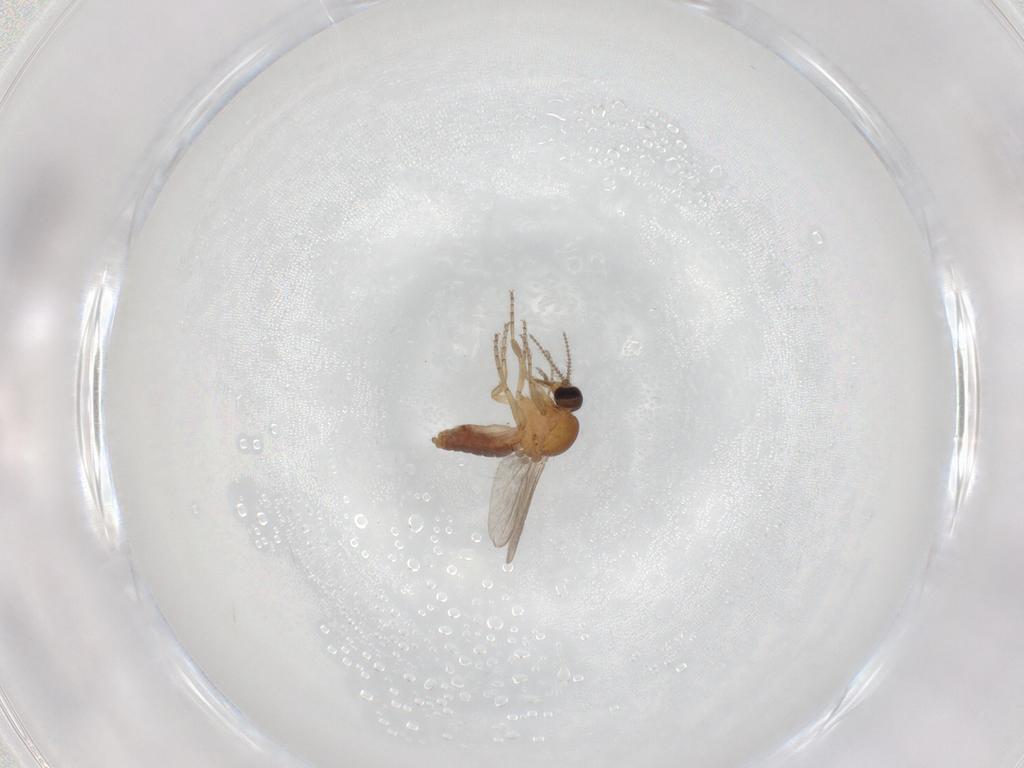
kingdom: Animalia
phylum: Arthropoda
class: Insecta
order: Diptera
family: Ceratopogonidae
